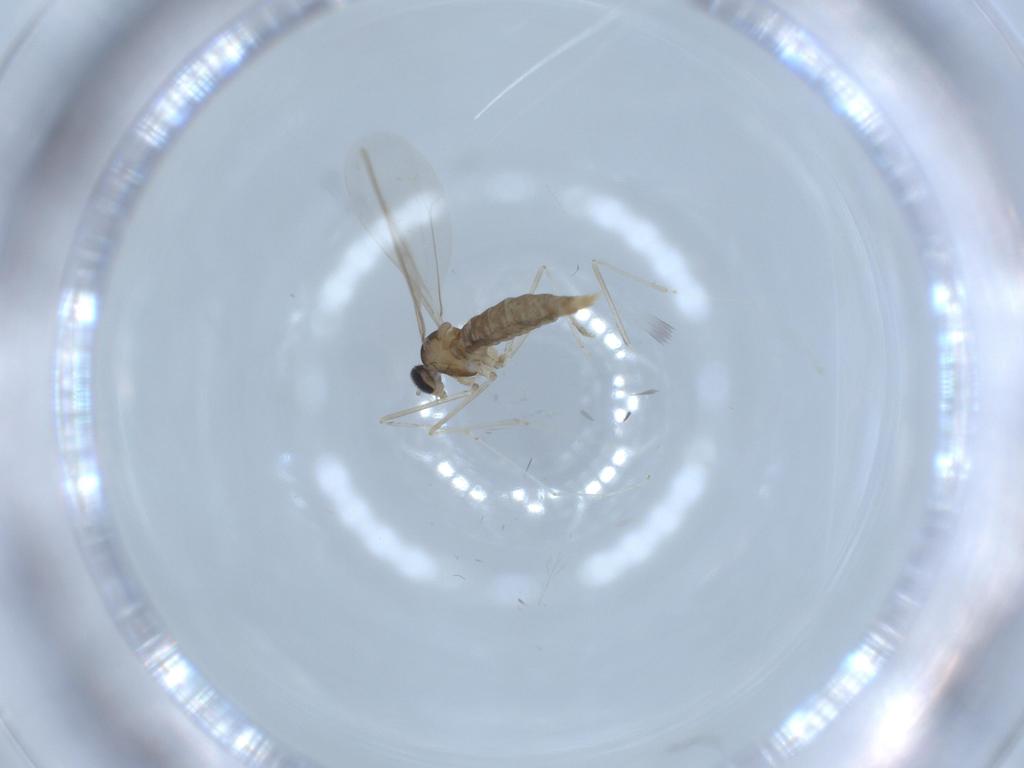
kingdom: Animalia
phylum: Arthropoda
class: Insecta
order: Diptera
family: Cecidomyiidae
